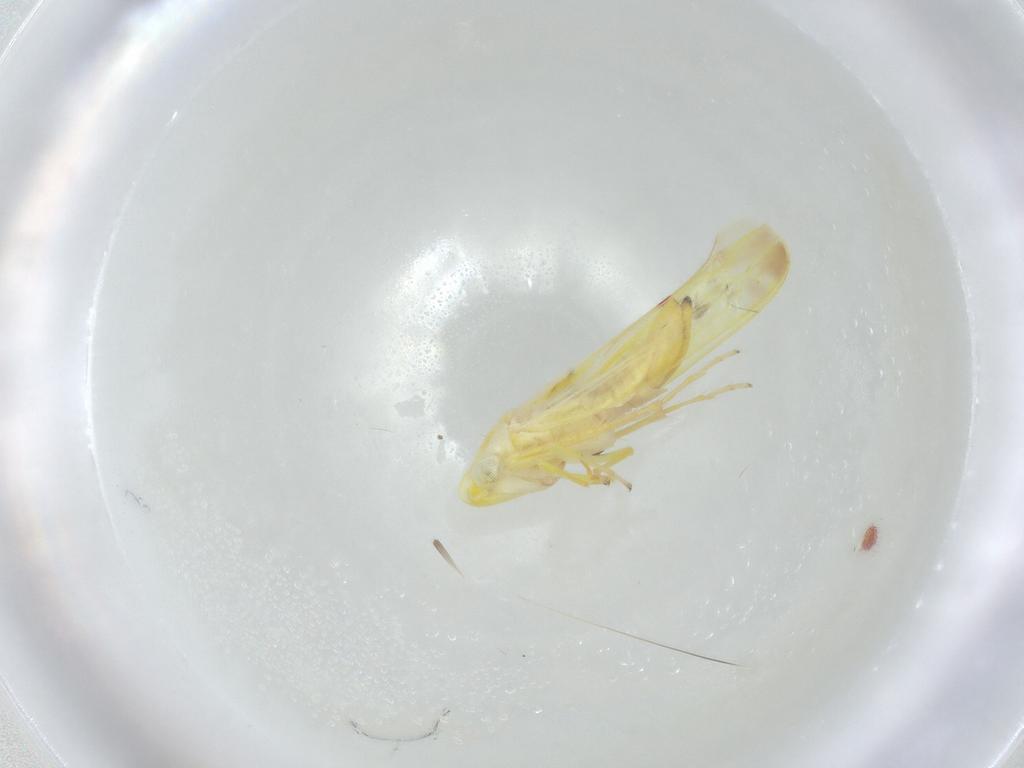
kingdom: Animalia
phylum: Arthropoda
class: Insecta
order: Hemiptera
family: Cicadellidae
